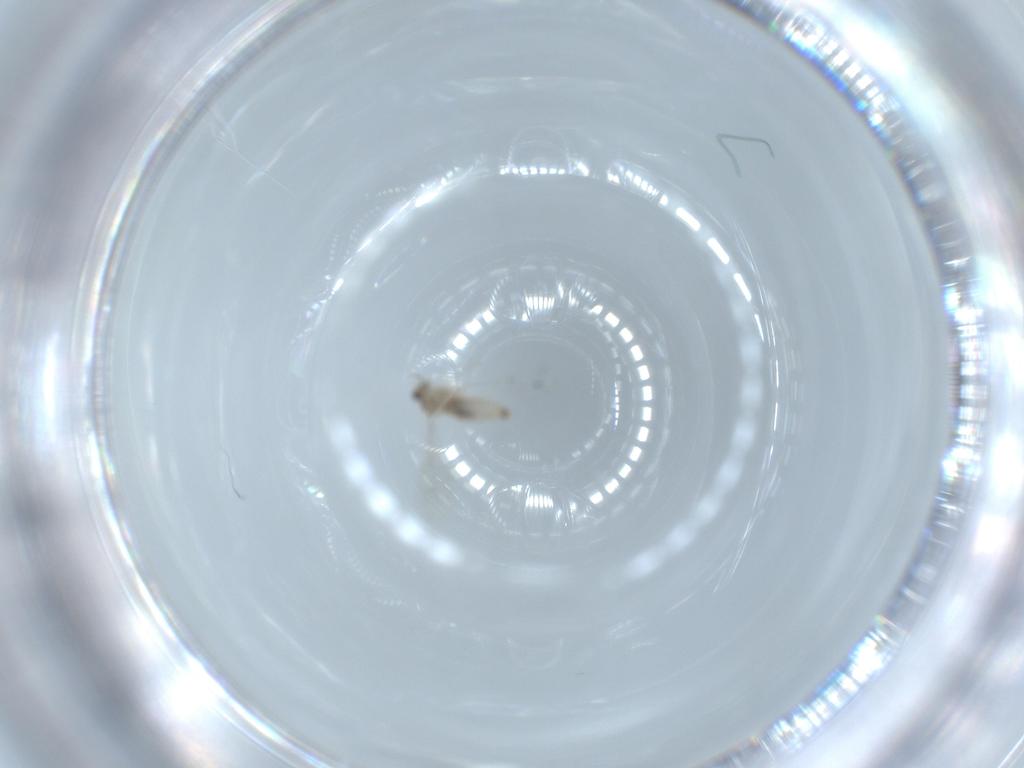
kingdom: Animalia
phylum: Arthropoda
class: Insecta
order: Diptera
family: Cecidomyiidae
